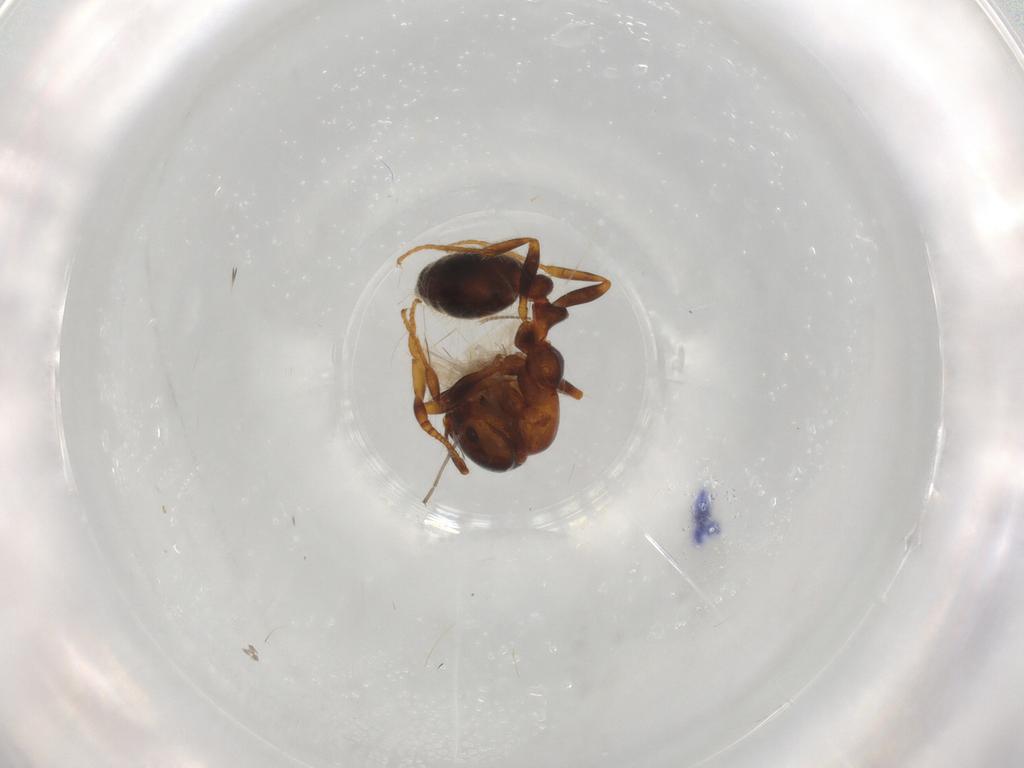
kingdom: Animalia
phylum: Arthropoda
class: Insecta
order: Hymenoptera
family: Formicidae
